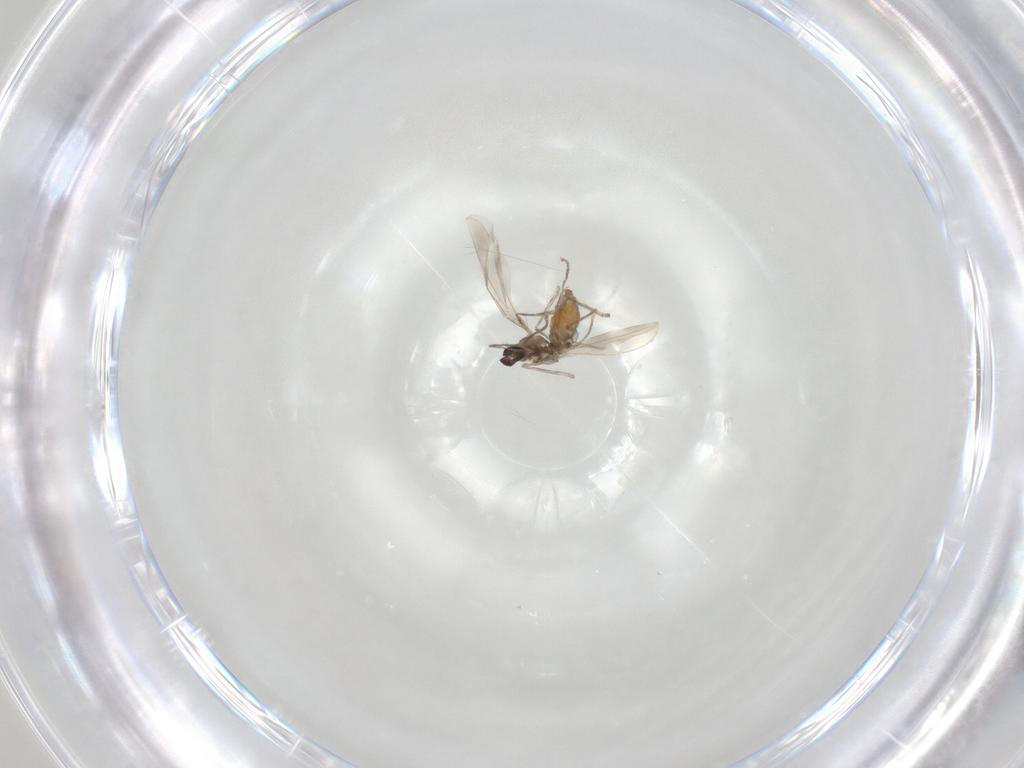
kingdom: Animalia
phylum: Arthropoda
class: Insecta
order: Diptera
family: Cecidomyiidae
